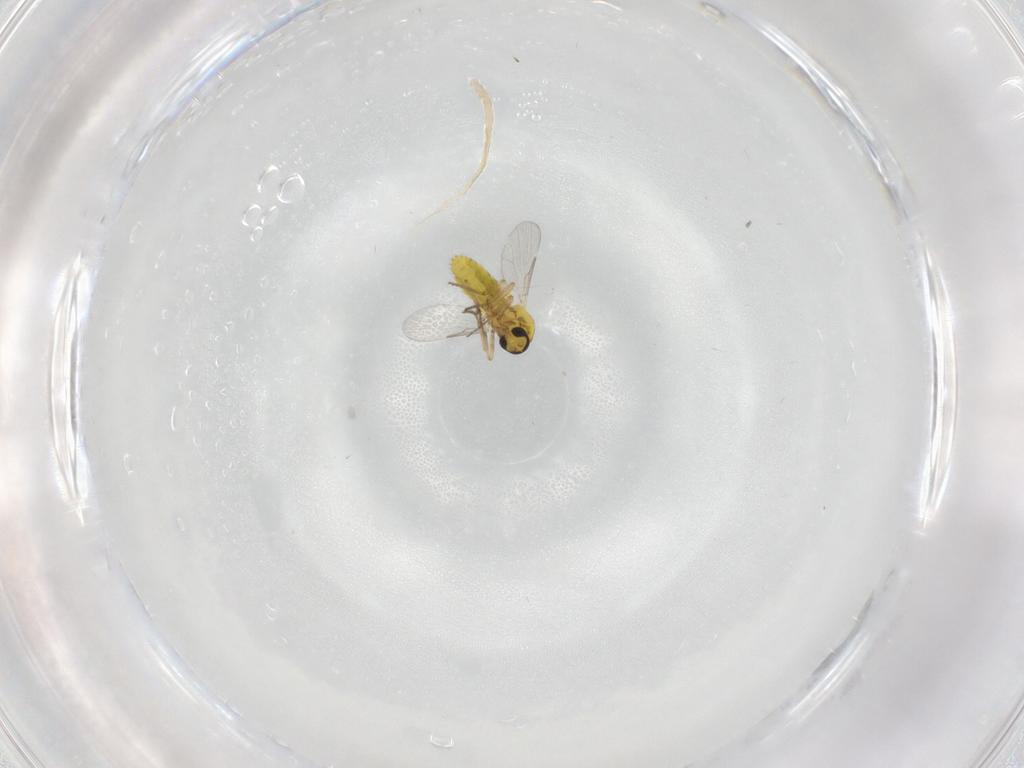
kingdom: Animalia
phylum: Arthropoda
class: Insecta
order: Diptera
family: Ceratopogonidae
